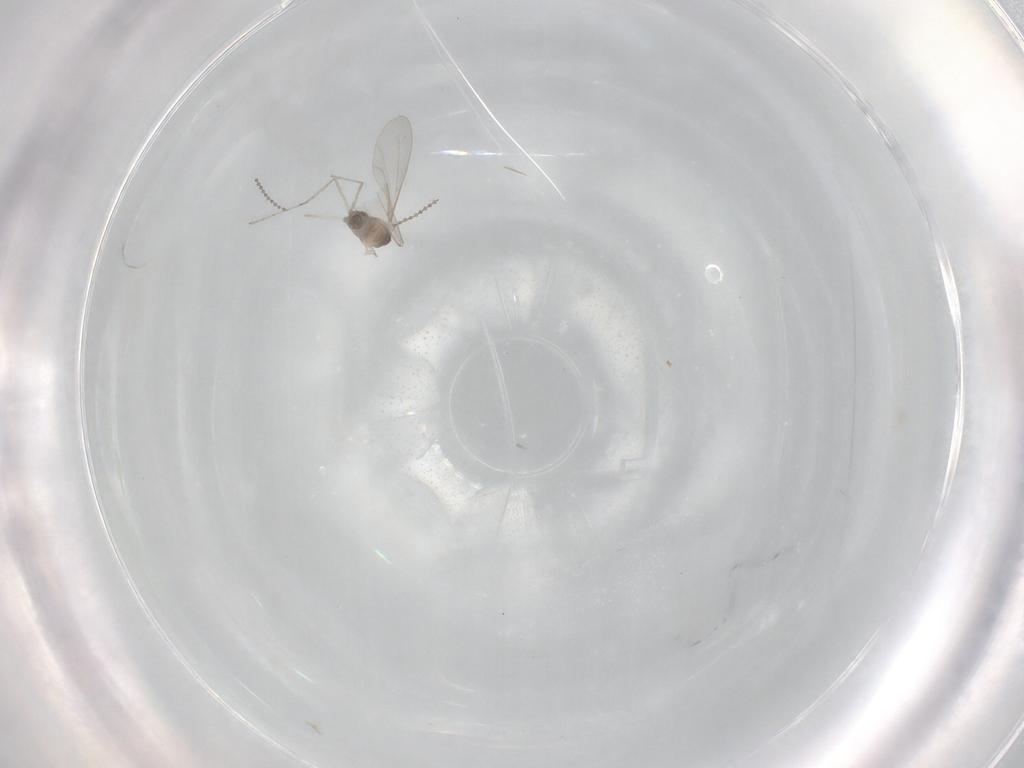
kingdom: Animalia
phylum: Arthropoda
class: Insecta
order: Diptera
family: Cecidomyiidae
